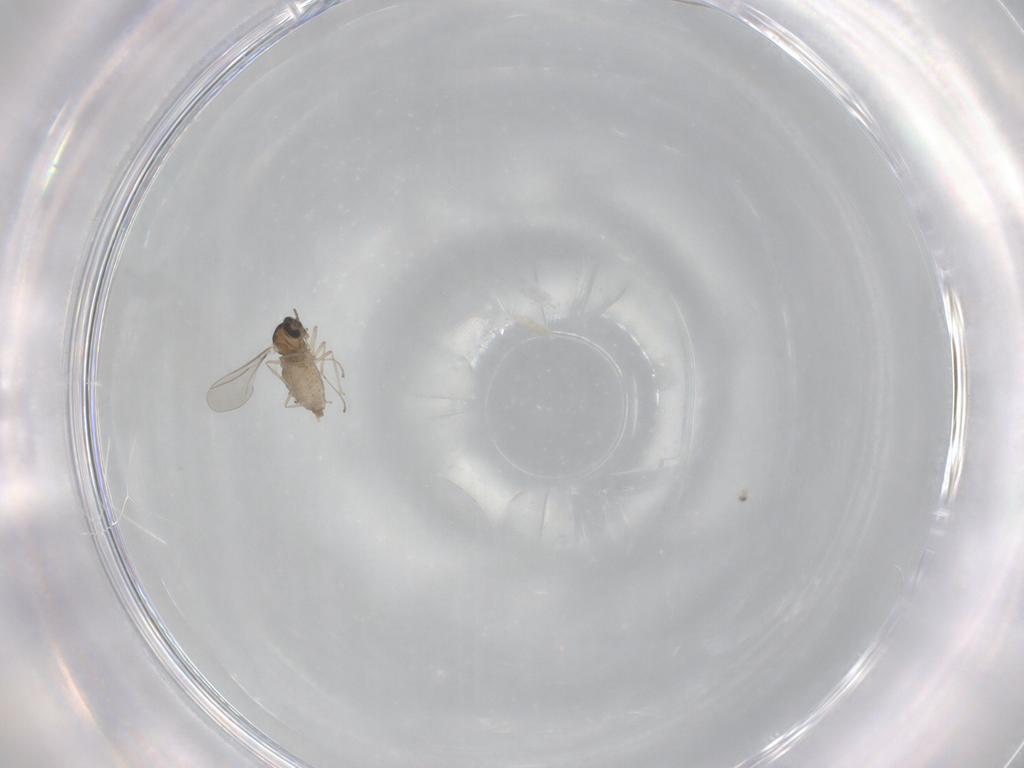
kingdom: Animalia
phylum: Arthropoda
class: Insecta
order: Diptera
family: Cecidomyiidae
